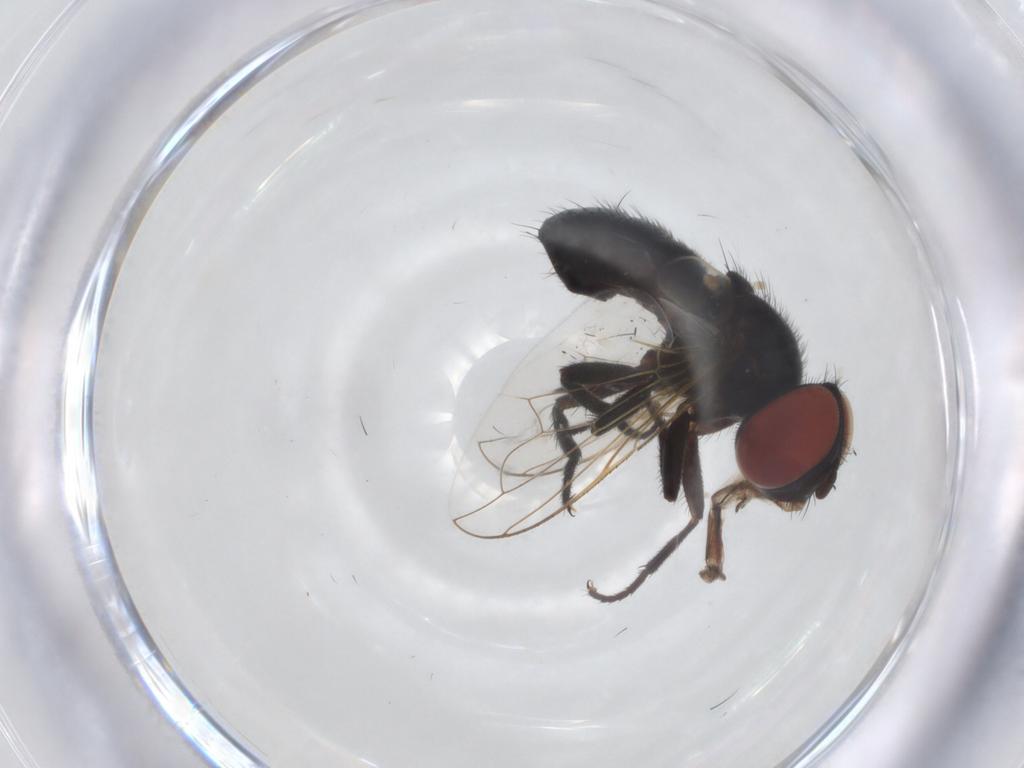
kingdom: Animalia
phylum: Arthropoda
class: Insecta
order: Diptera
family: Tachinidae
